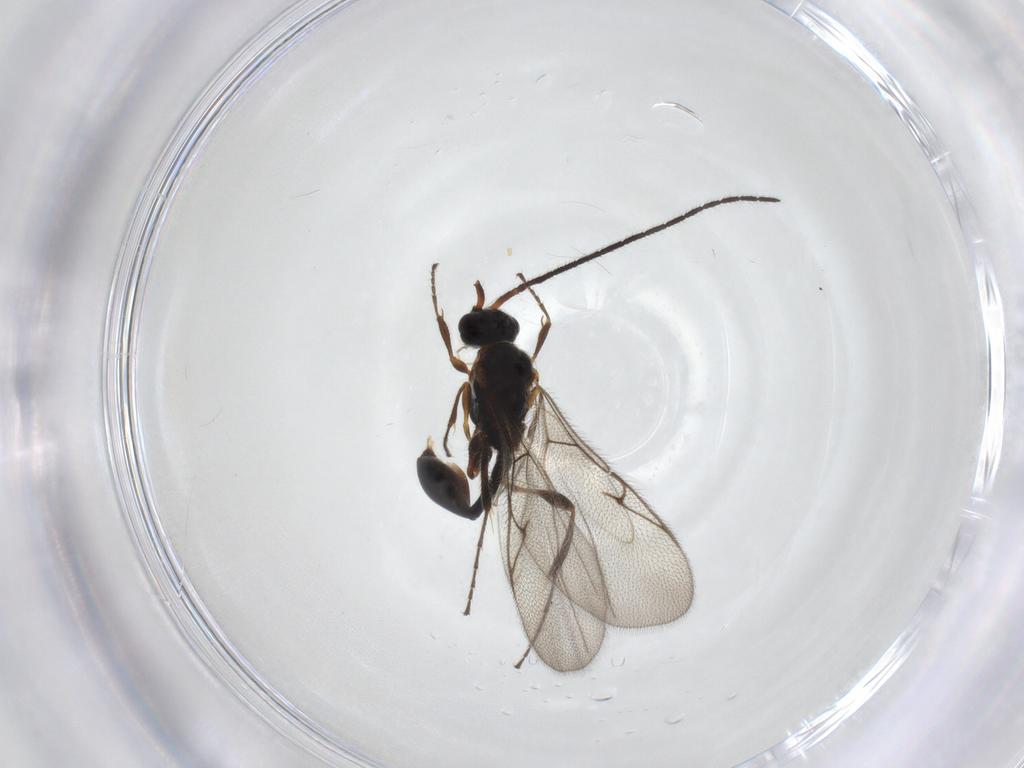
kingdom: Animalia
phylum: Arthropoda
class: Insecta
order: Hymenoptera
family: Diapriidae
